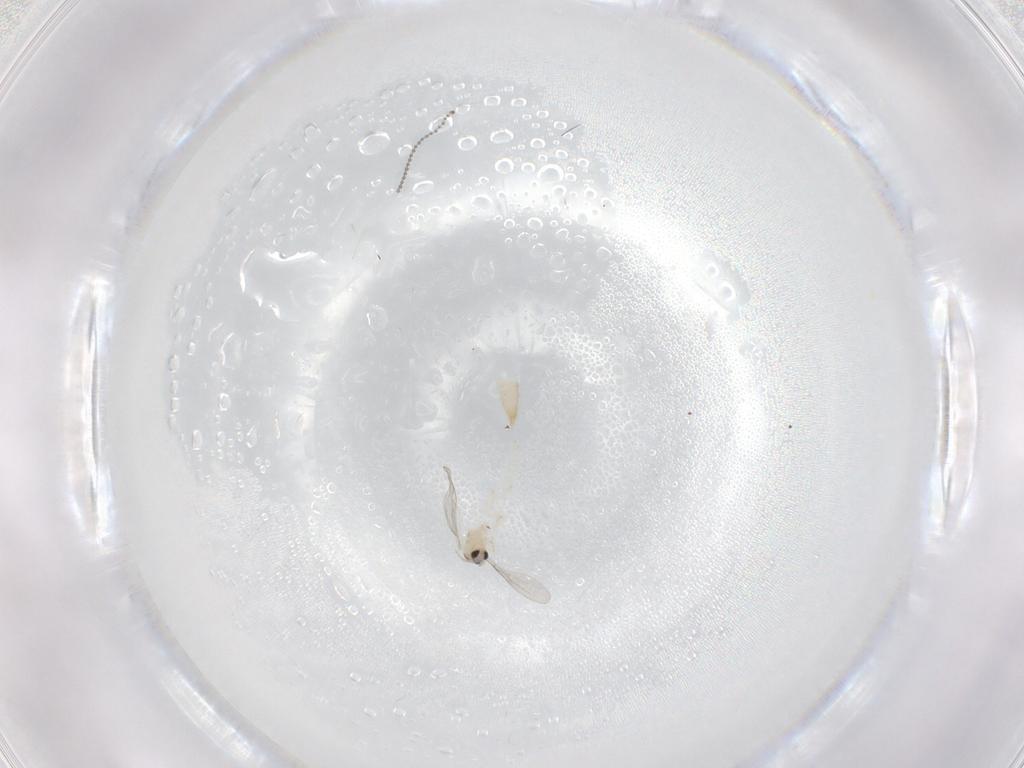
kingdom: Animalia
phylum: Arthropoda
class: Insecta
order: Diptera
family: Cecidomyiidae
